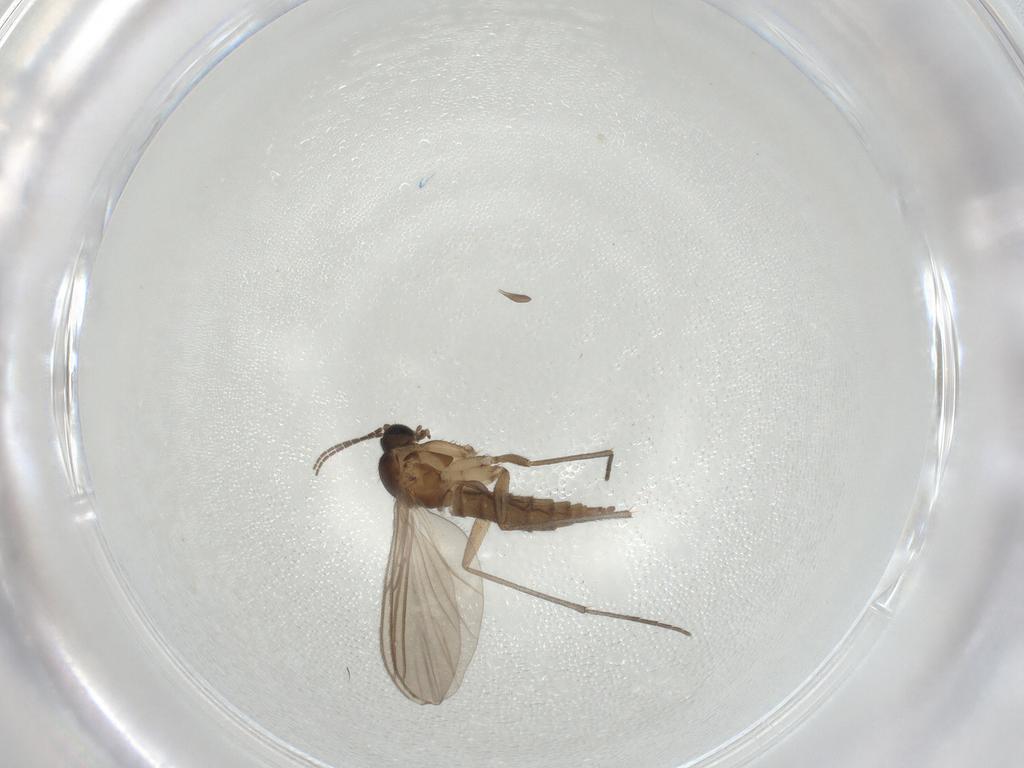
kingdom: Animalia
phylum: Arthropoda
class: Insecta
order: Diptera
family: Sciaridae
